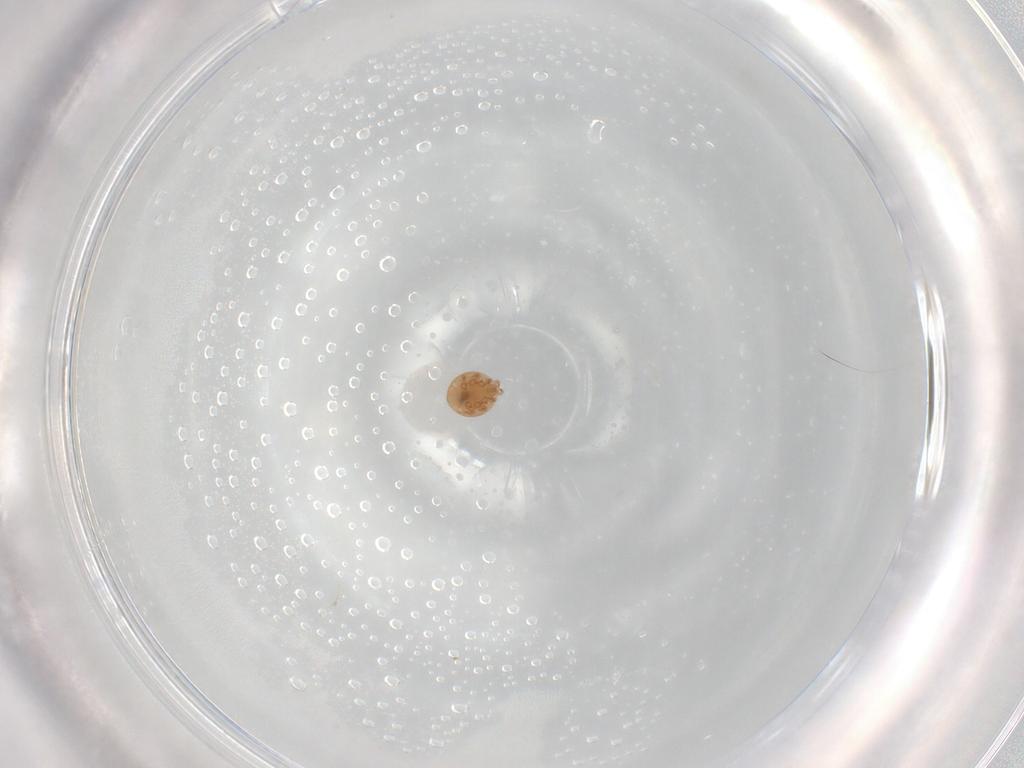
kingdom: Animalia
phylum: Arthropoda
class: Arachnida
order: Mesostigmata
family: Trematuridae
